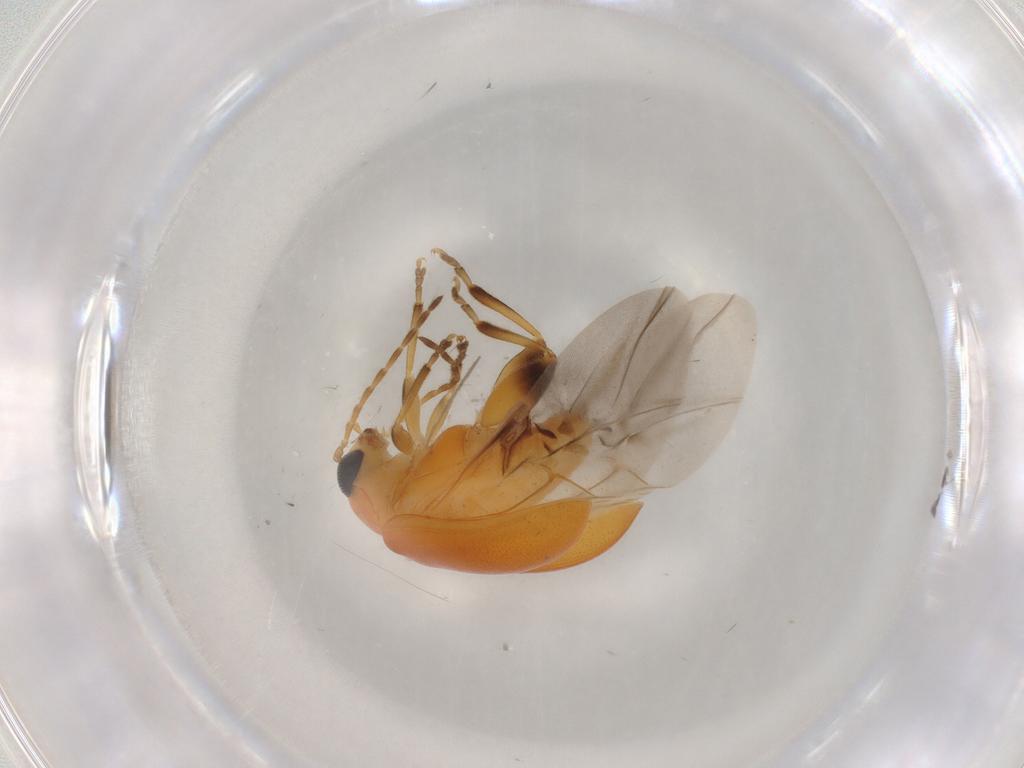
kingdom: Animalia
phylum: Arthropoda
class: Insecta
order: Coleoptera
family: Chrysomelidae
